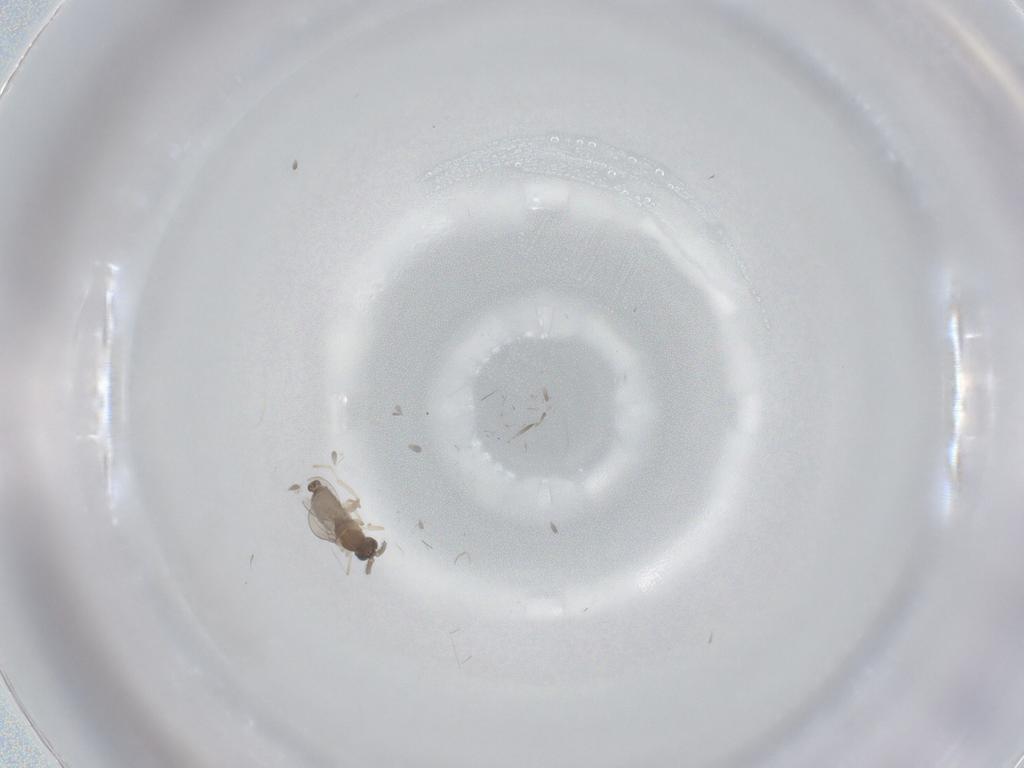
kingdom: Animalia
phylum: Arthropoda
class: Insecta
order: Diptera
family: Cecidomyiidae
